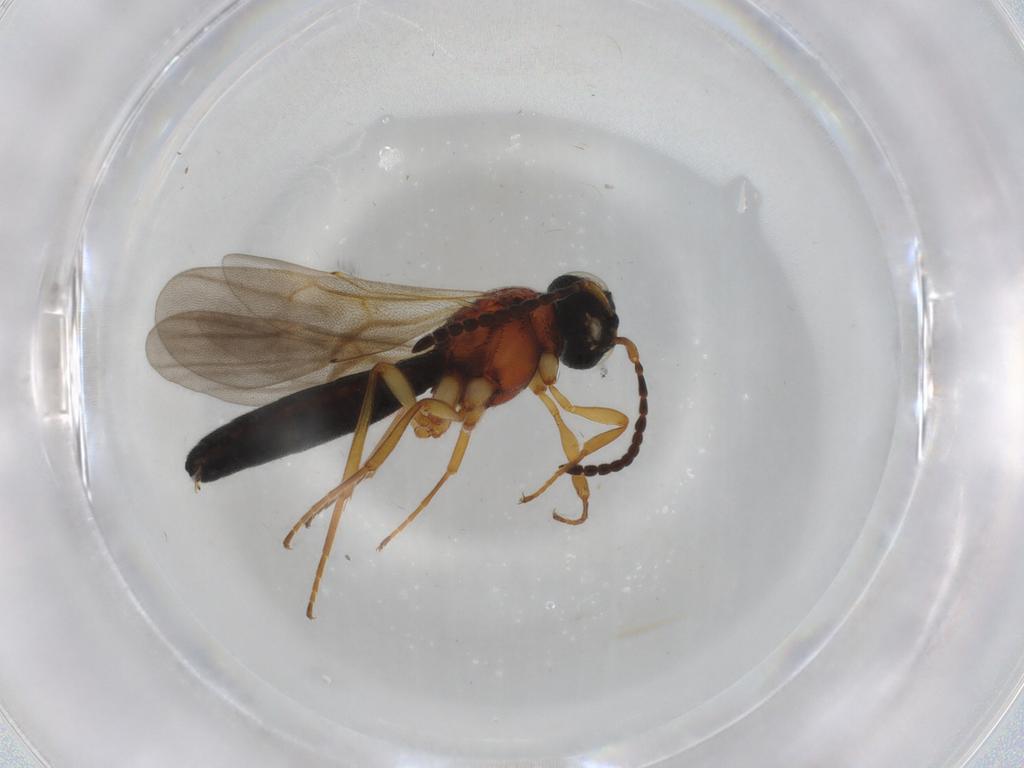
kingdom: Animalia
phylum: Arthropoda
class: Insecta
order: Hymenoptera
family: Scelionidae
